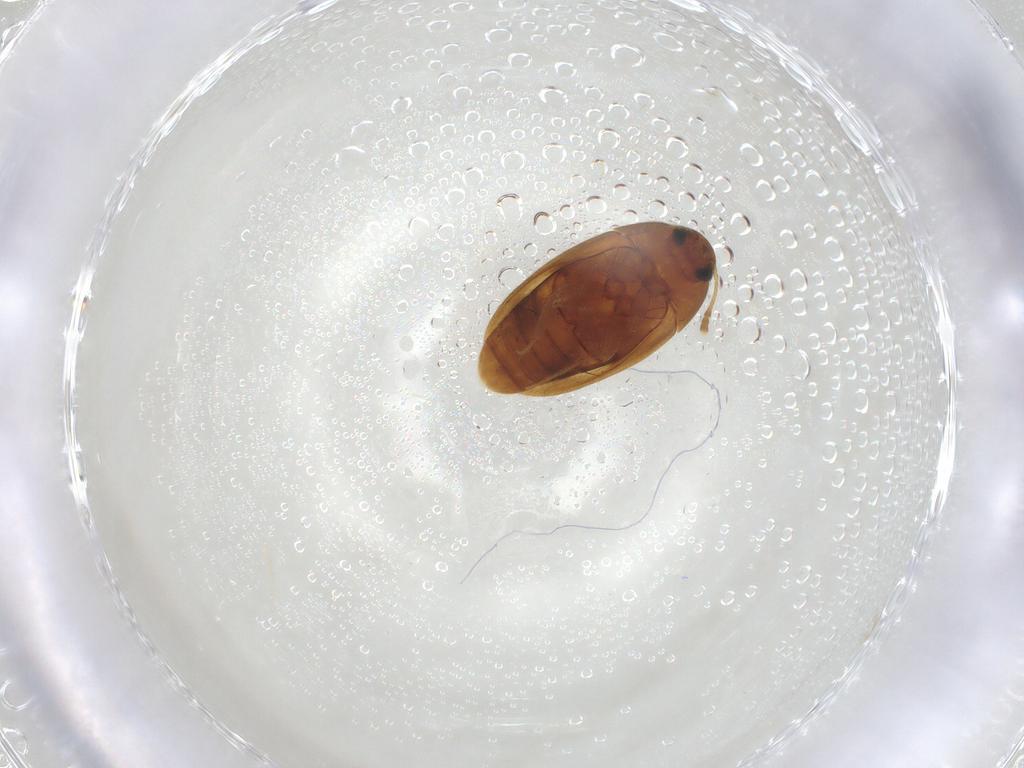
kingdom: Animalia
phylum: Arthropoda
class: Insecta
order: Coleoptera
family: Mycetophagidae
